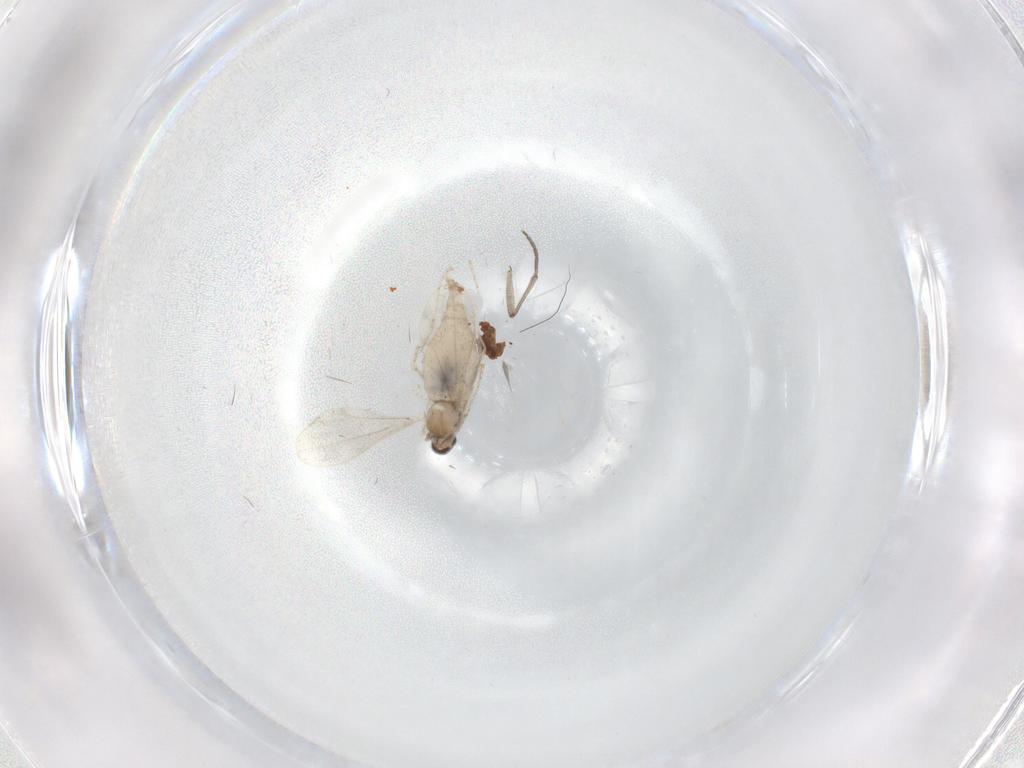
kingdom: Animalia
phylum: Arthropoda
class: Insecta
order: Diptera
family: Cecidomyiidae
